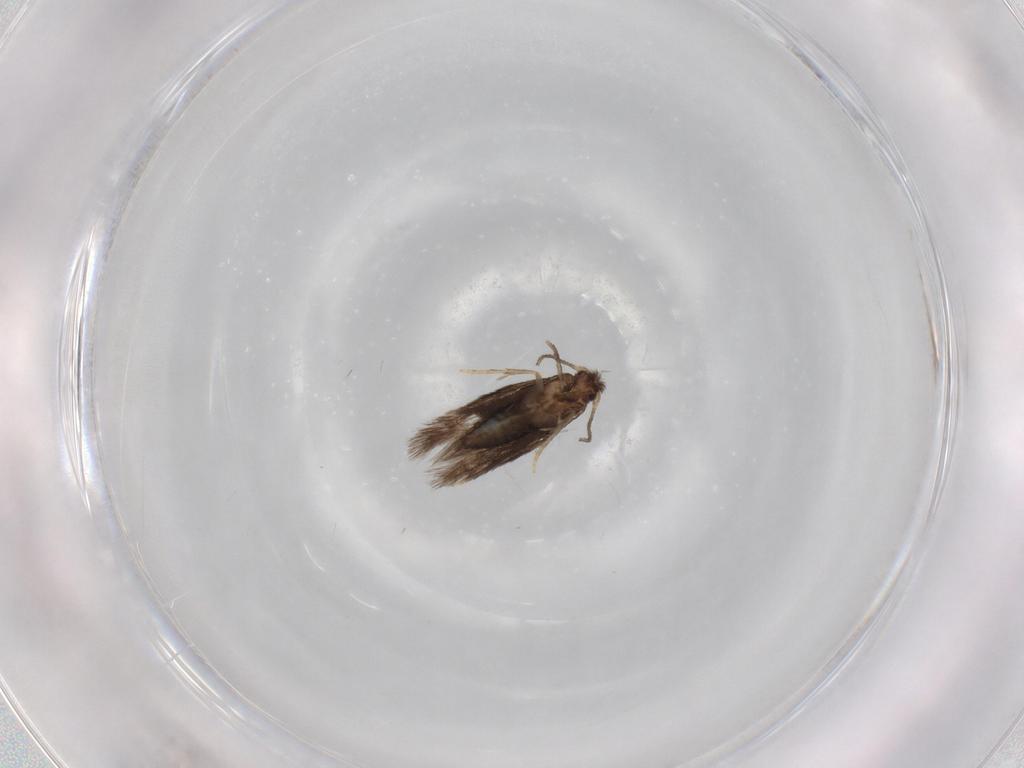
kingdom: Animalia
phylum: Arthropoda
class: Insecta
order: Lepidoptera
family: Nepticulidae
